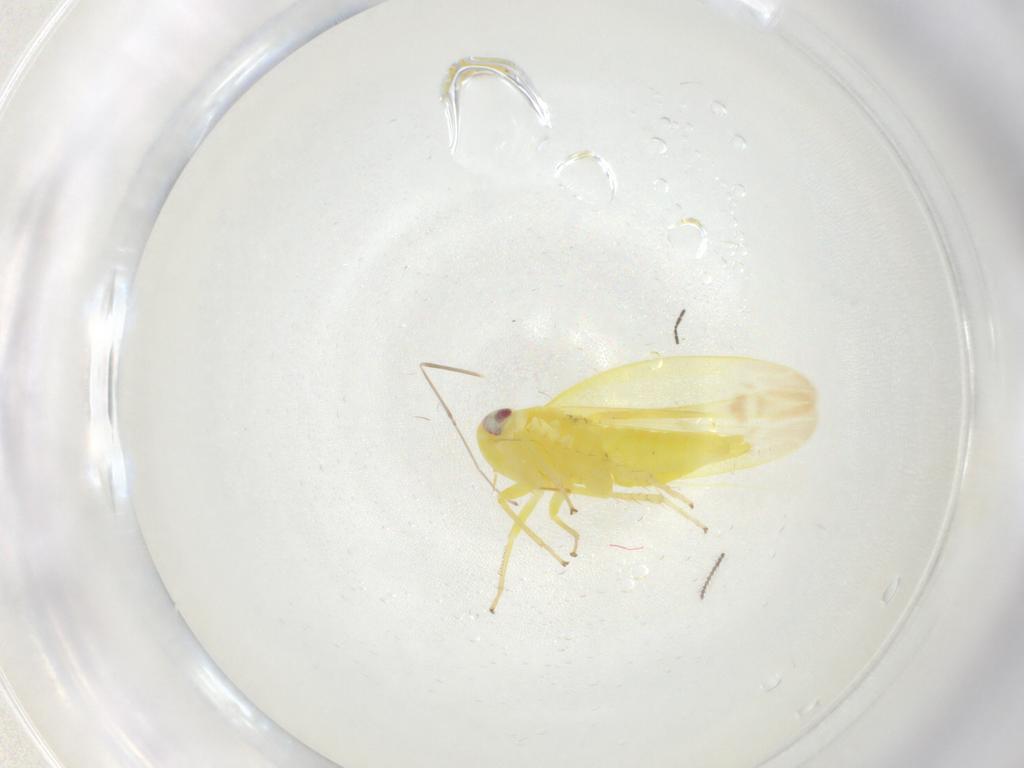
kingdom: Animalia
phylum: Arthropoda
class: Insecta
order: Hemiptera
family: Cicadellidae
